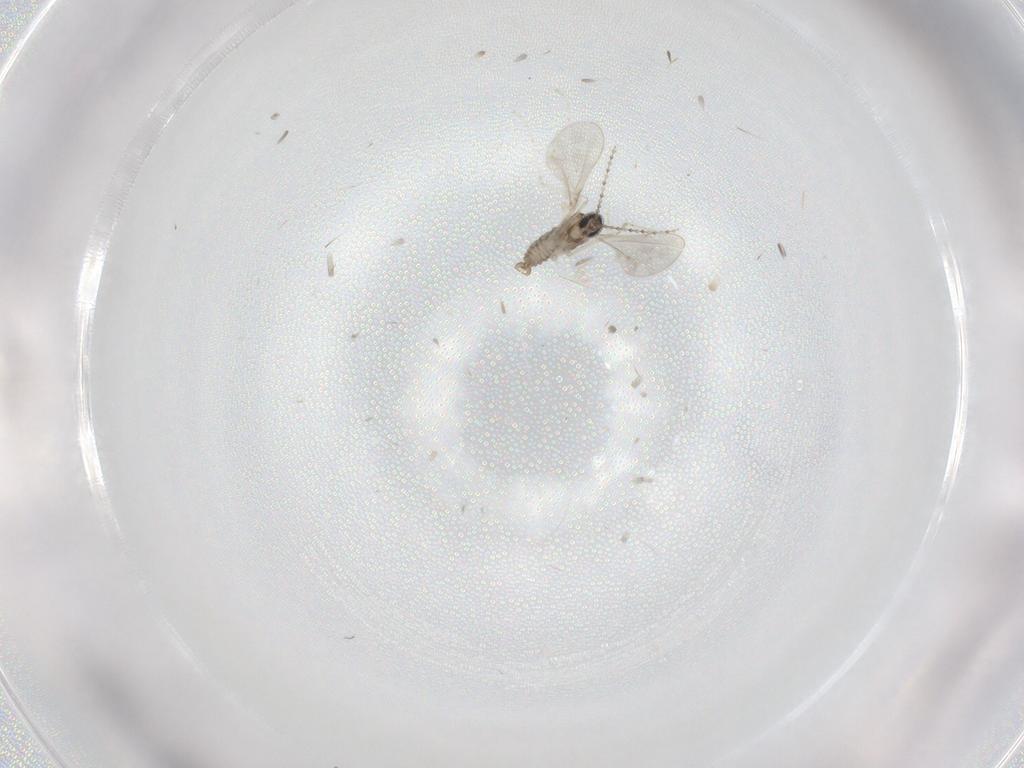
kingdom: Animalia
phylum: Arthropoda
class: Insecta
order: Diptera
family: Cecidomyiidae
